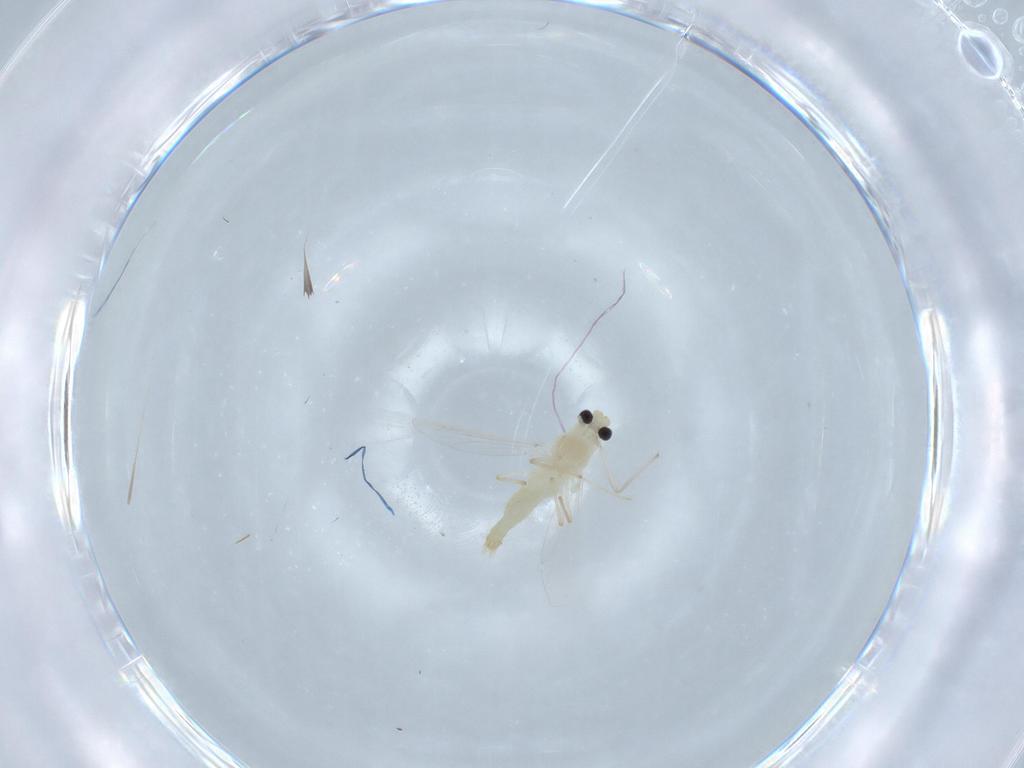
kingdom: Animalia
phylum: Arthropoda
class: Insecta
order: Diptera
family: Chironomidae
